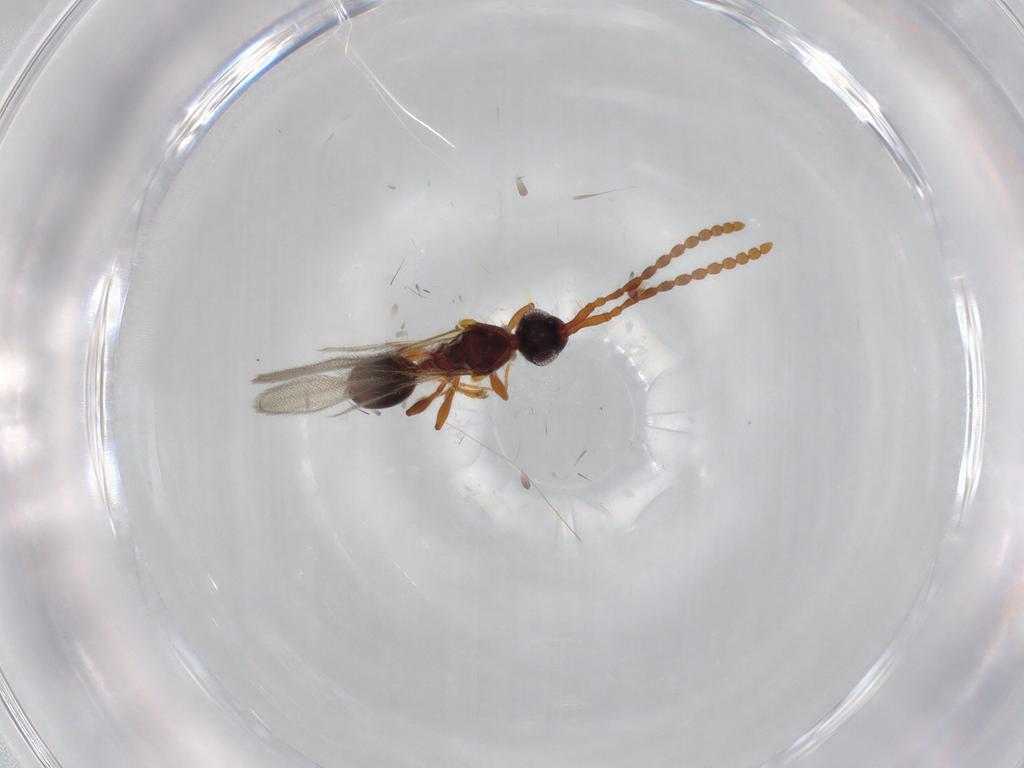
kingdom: Animalia
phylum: Arthropoda
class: Insecta
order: Hymenoptera
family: Diapriidae
